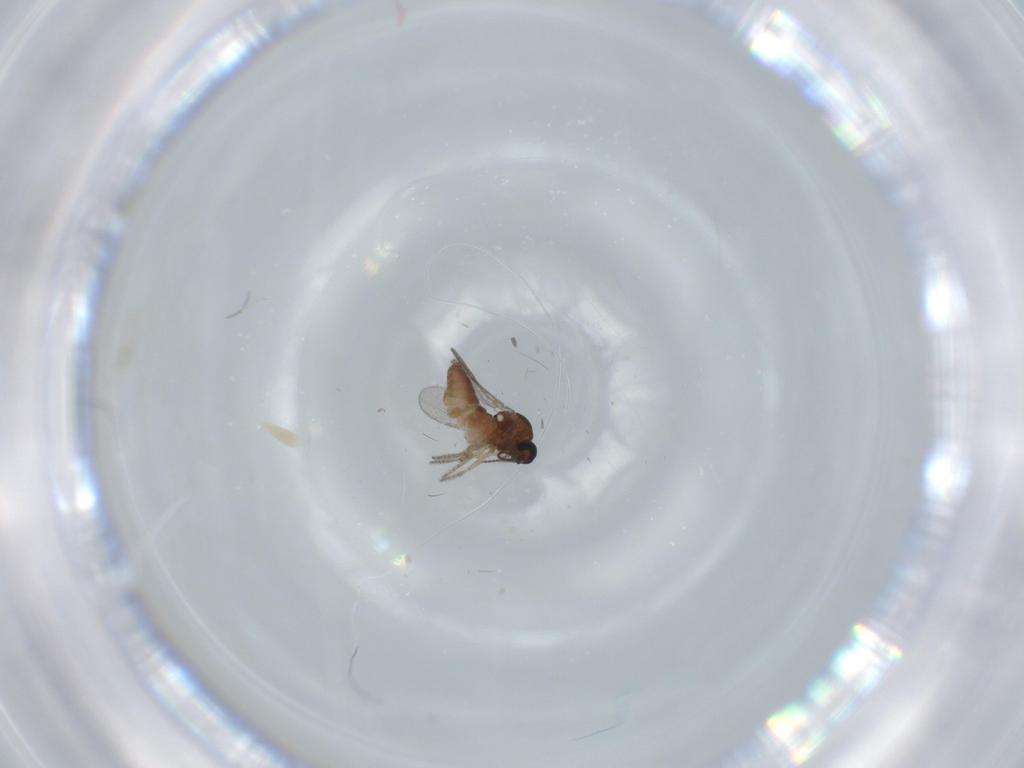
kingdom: Animalia
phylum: Arthropoda
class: Insecta
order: Diptera
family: Ceratopogonidae
